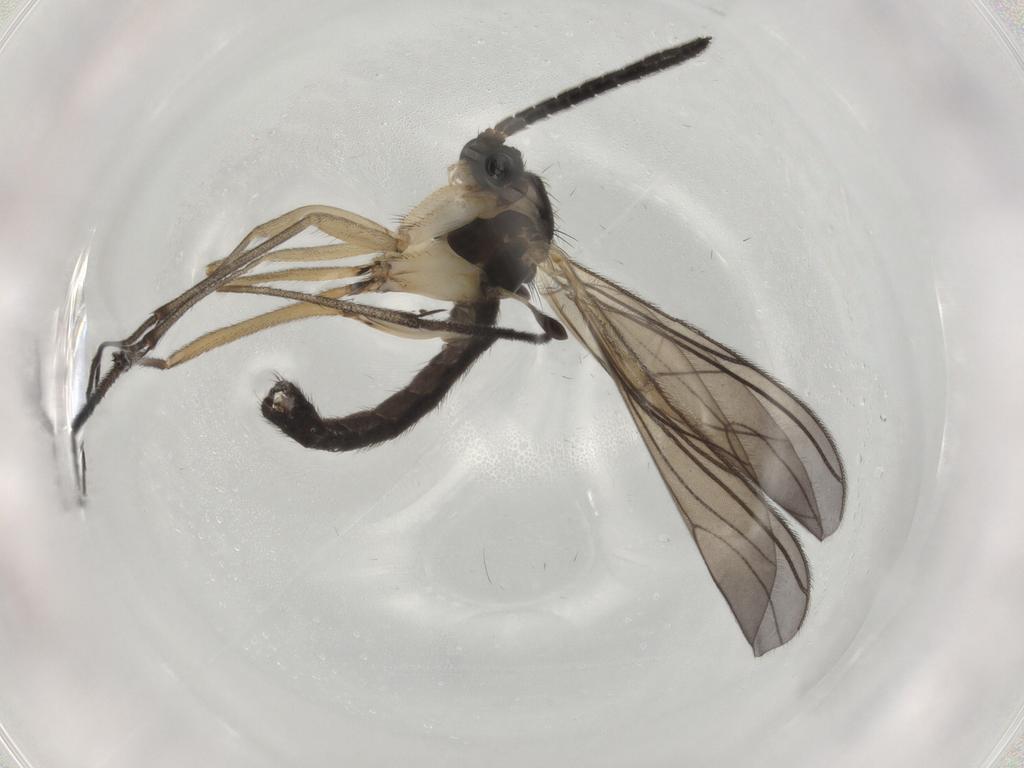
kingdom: Animalia
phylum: Arthropoda
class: Insecta
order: Diptera
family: Sciaridae
